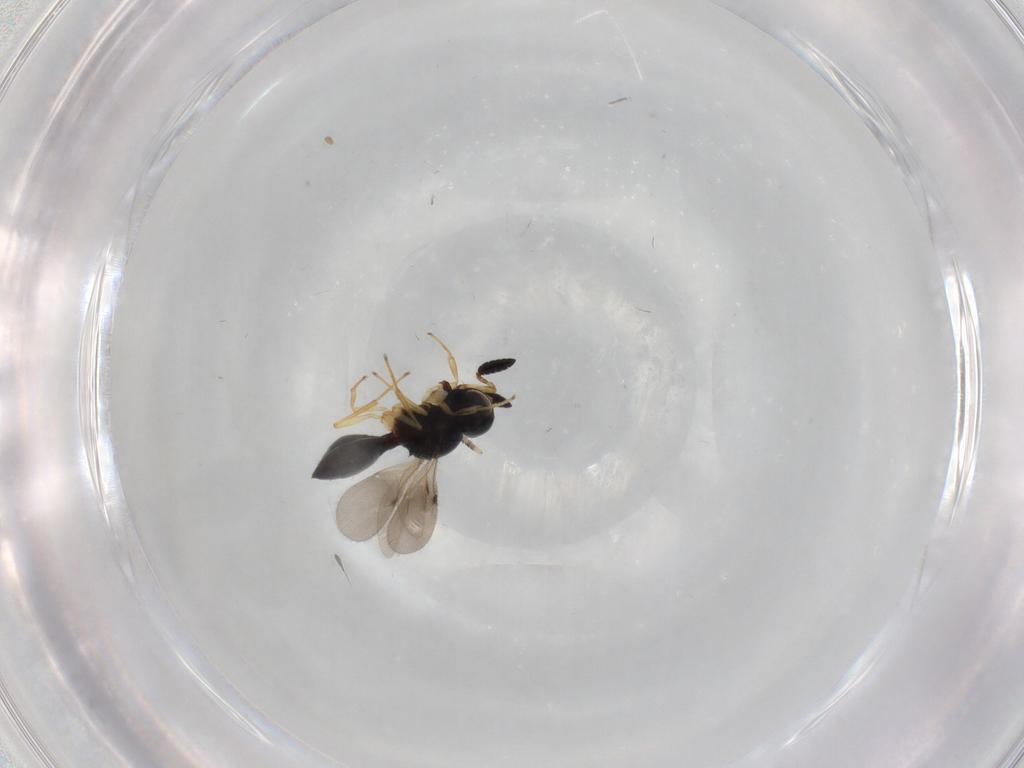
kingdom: Animalia
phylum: Arthropoda
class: Insecta
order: Hymenoptera
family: Scelionidae
